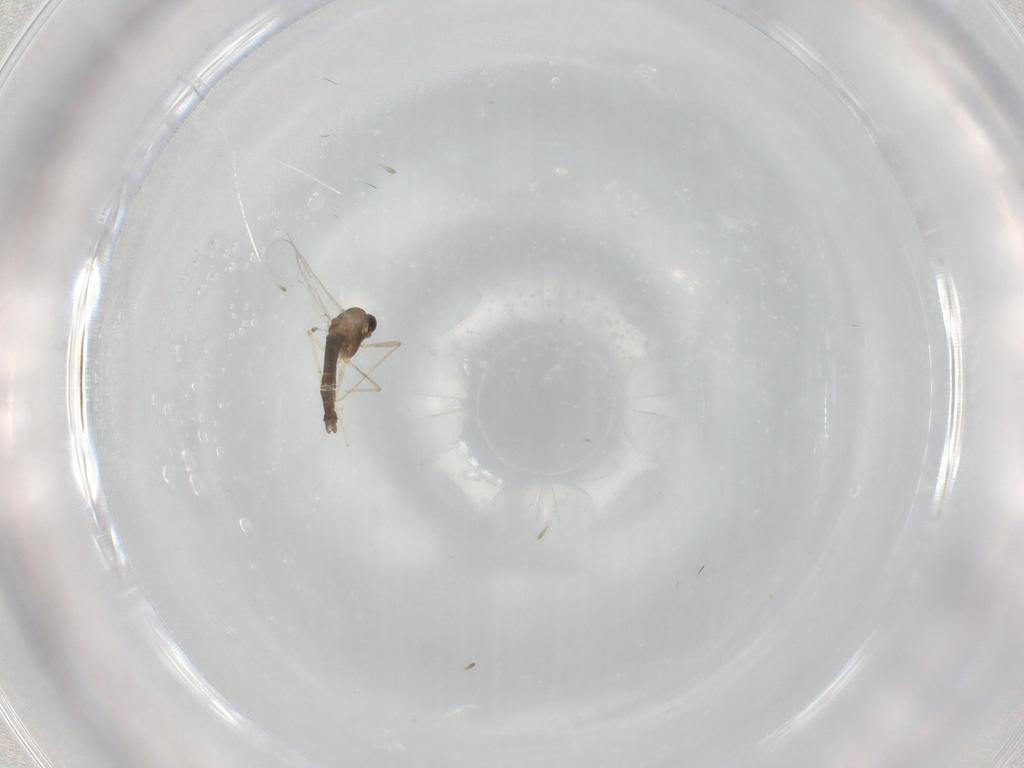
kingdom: Animalia
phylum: Arthropoda
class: Insecta
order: Diptera
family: Chironomidae
